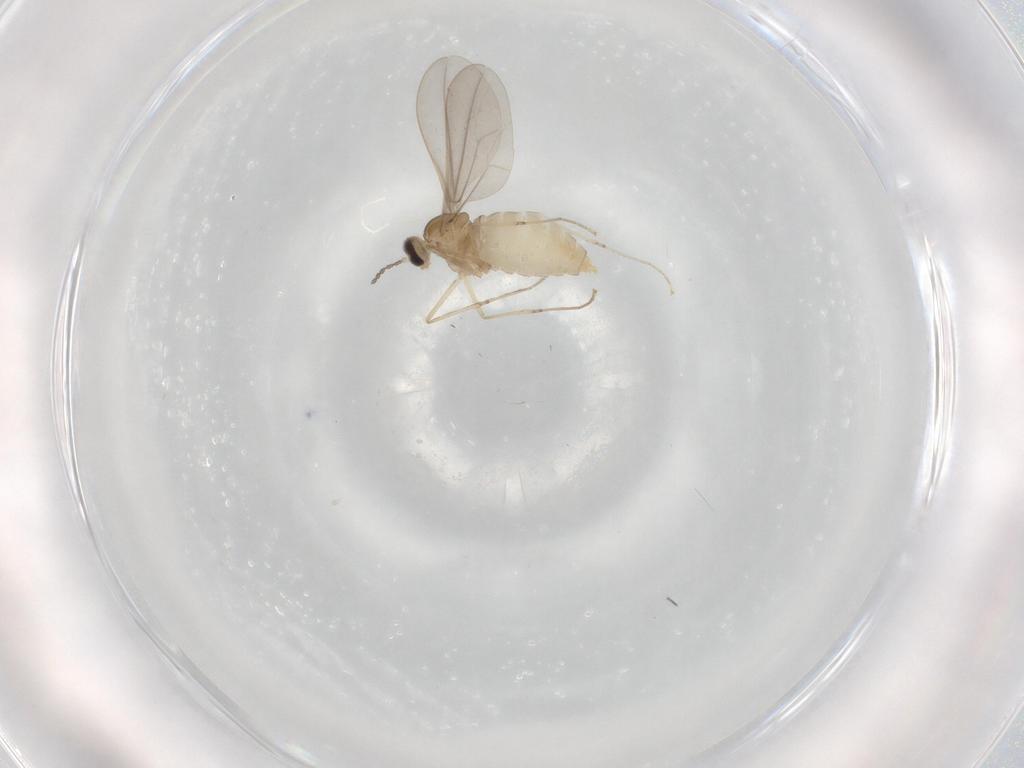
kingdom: Animalia
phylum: Arthropoda
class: Insecta
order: Diptera
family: Cecidomyiidae
